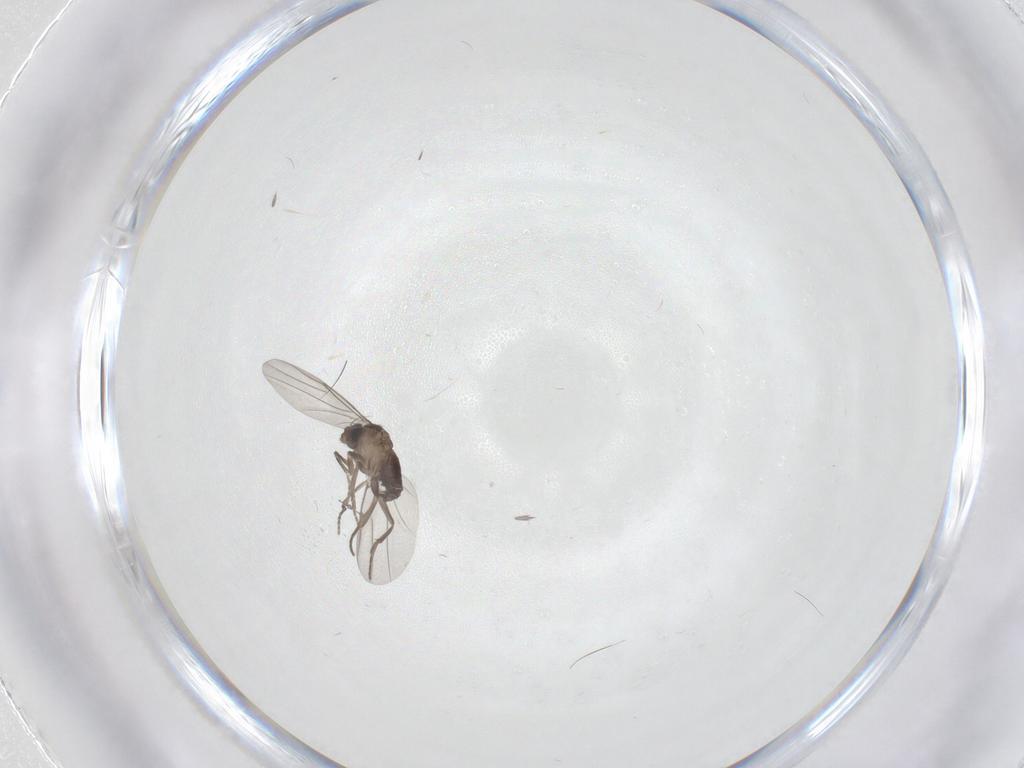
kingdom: Animalia
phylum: Arthropoda
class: Insecta
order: Diptera
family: Cecidomyiidae
